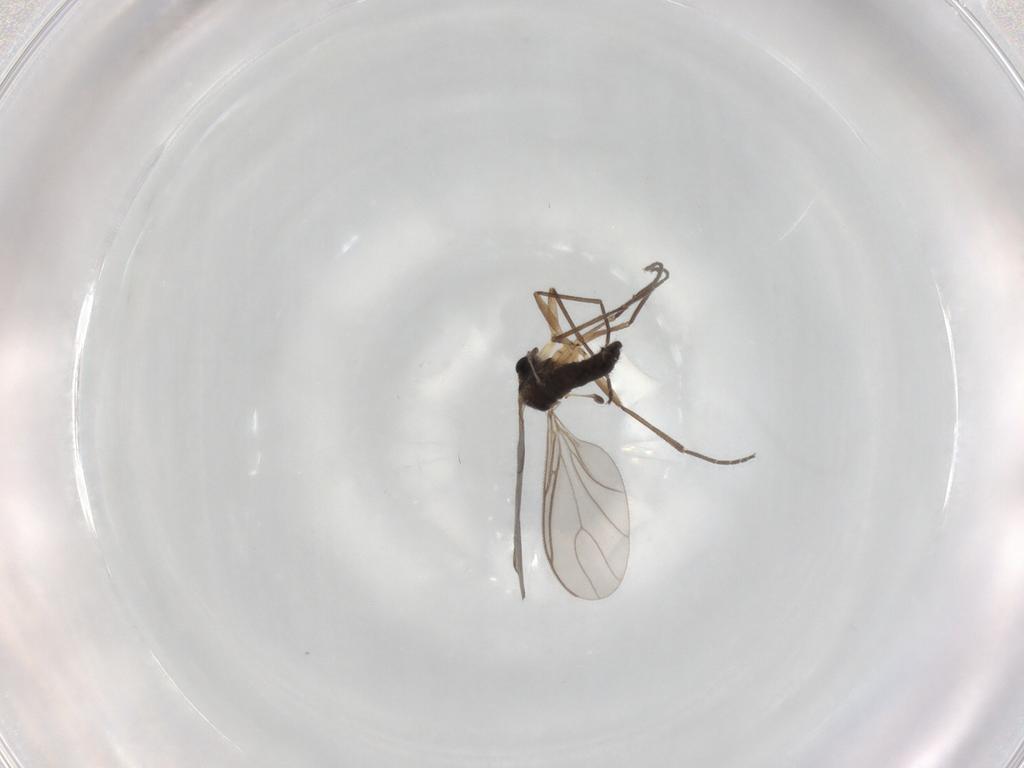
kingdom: Animalia
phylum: Arthropoda
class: Insecta
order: Diptera
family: Sciaridae
